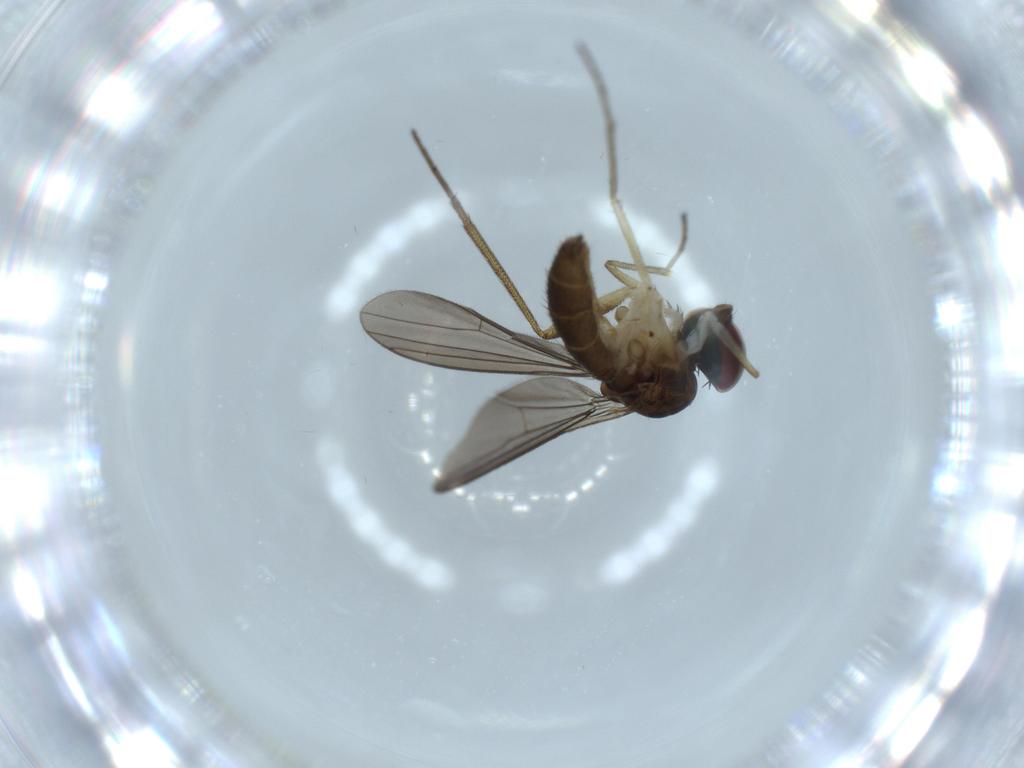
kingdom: Animalia
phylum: Arthropoda
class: Insecta
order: Diptera
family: Dolichopodidae
